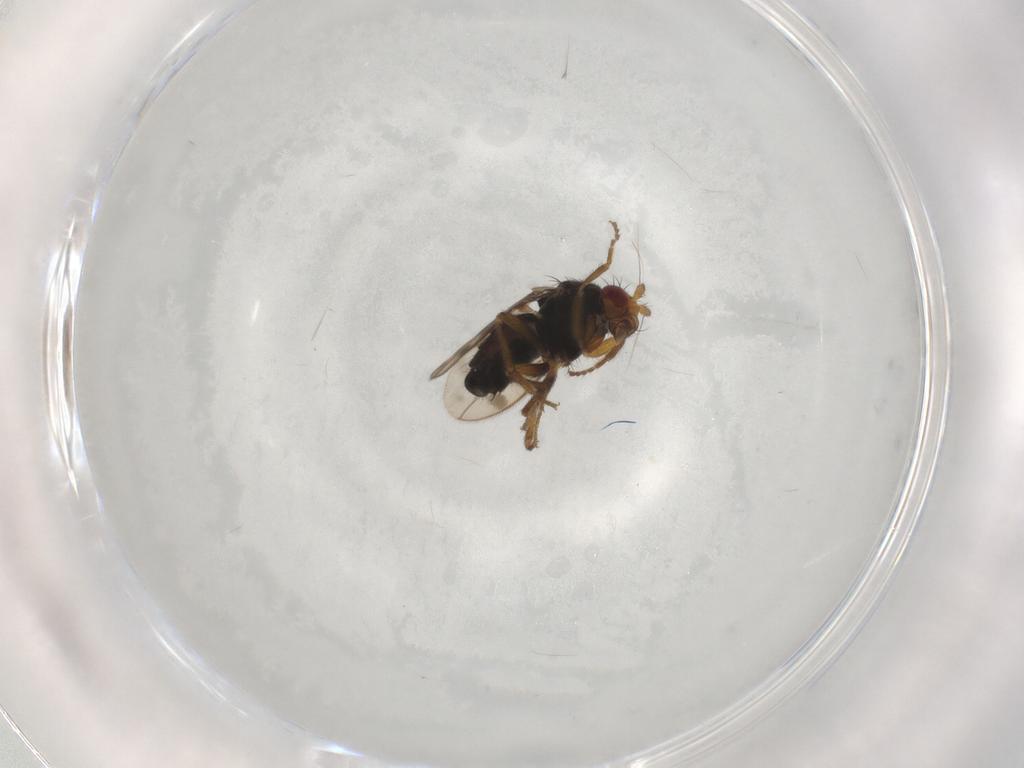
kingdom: Animalia
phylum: Arthropoda
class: Insecta
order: Diptera
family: Sphaeroceridae
